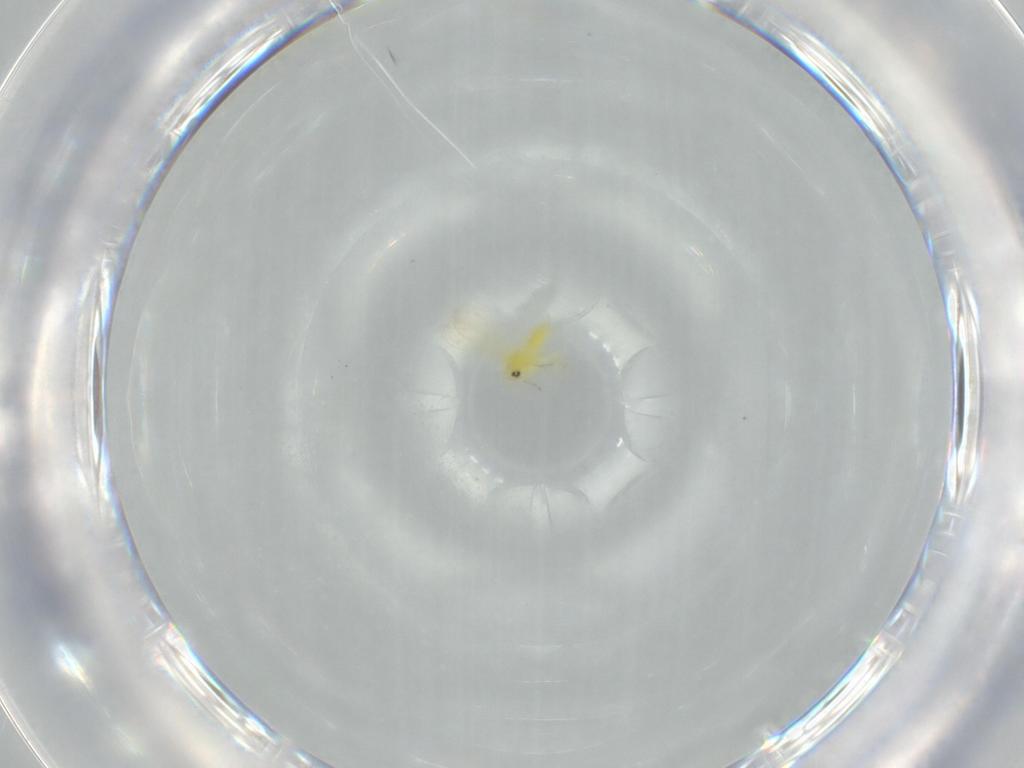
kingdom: Animalia
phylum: Arthropoda
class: Insecta
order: Hemiptera
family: Aleyrodidae
